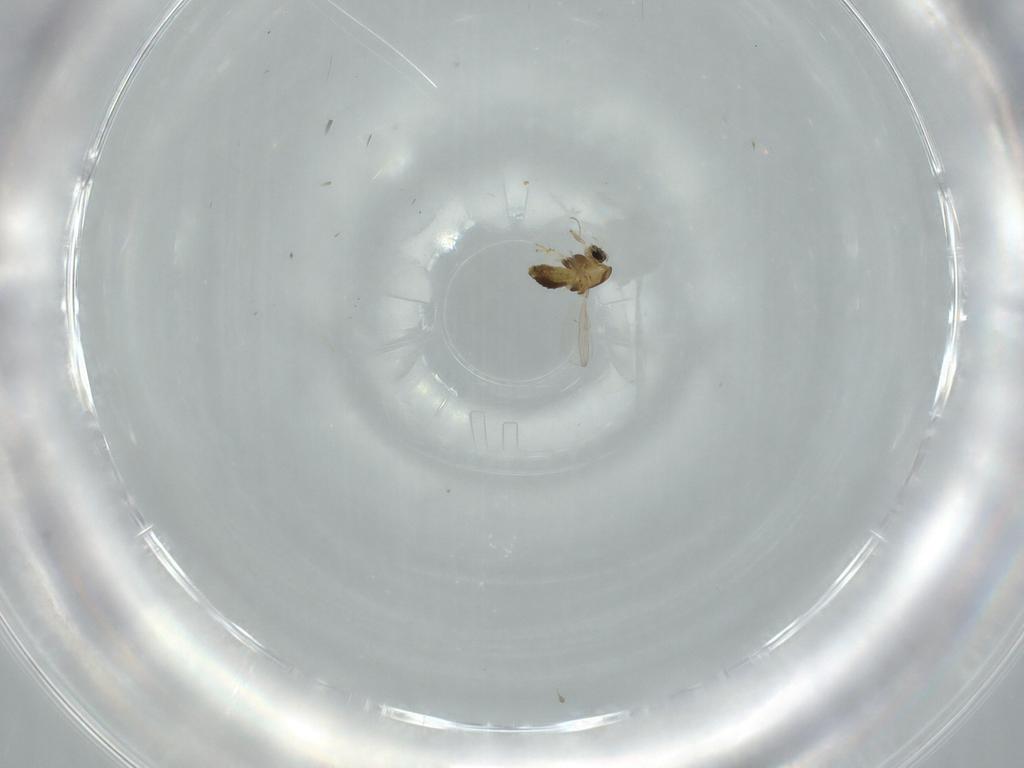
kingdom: Animalia
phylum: Arthropoda
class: Insecta
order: Diptera
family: Chironomidae
